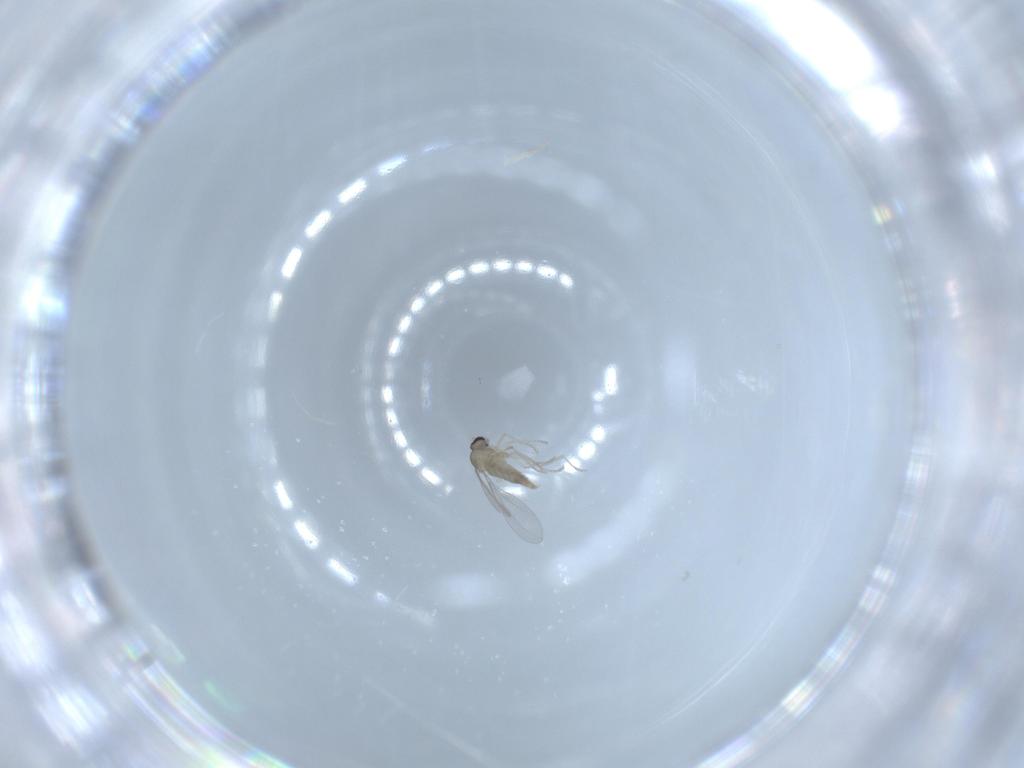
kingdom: Animalia
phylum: Arthropoda
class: Insecta
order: Diptera
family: Cecidomyiidae
